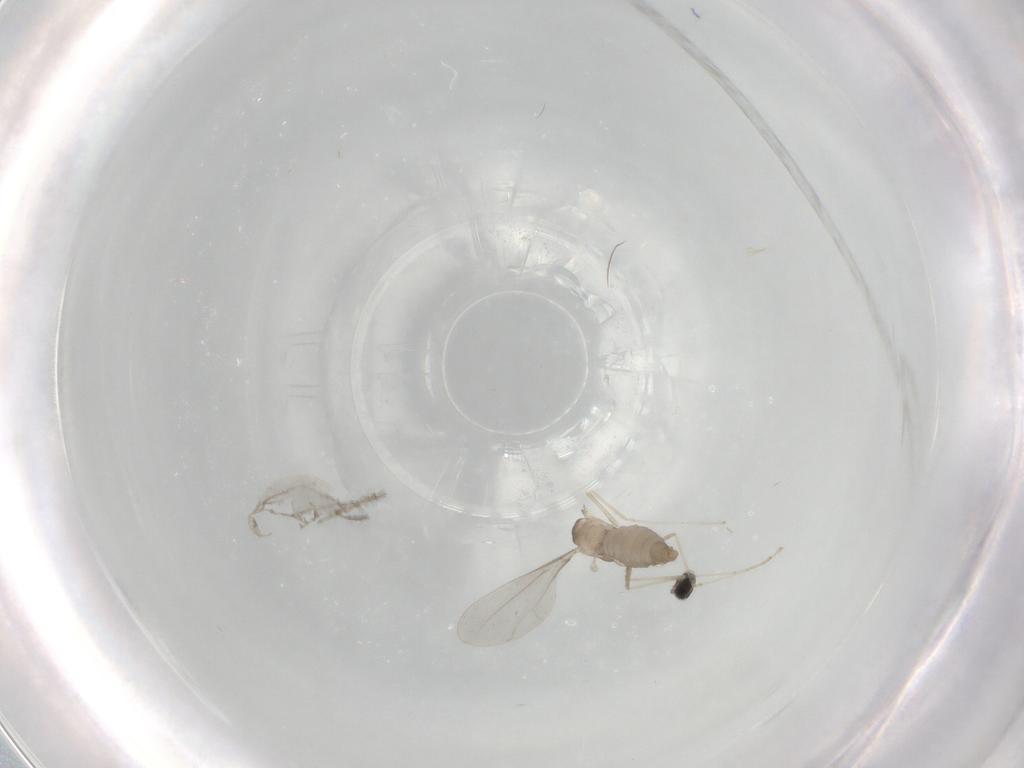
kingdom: Animalia
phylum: Arthropoda
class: Insecta
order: Diptera
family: Cecidomyiidae
